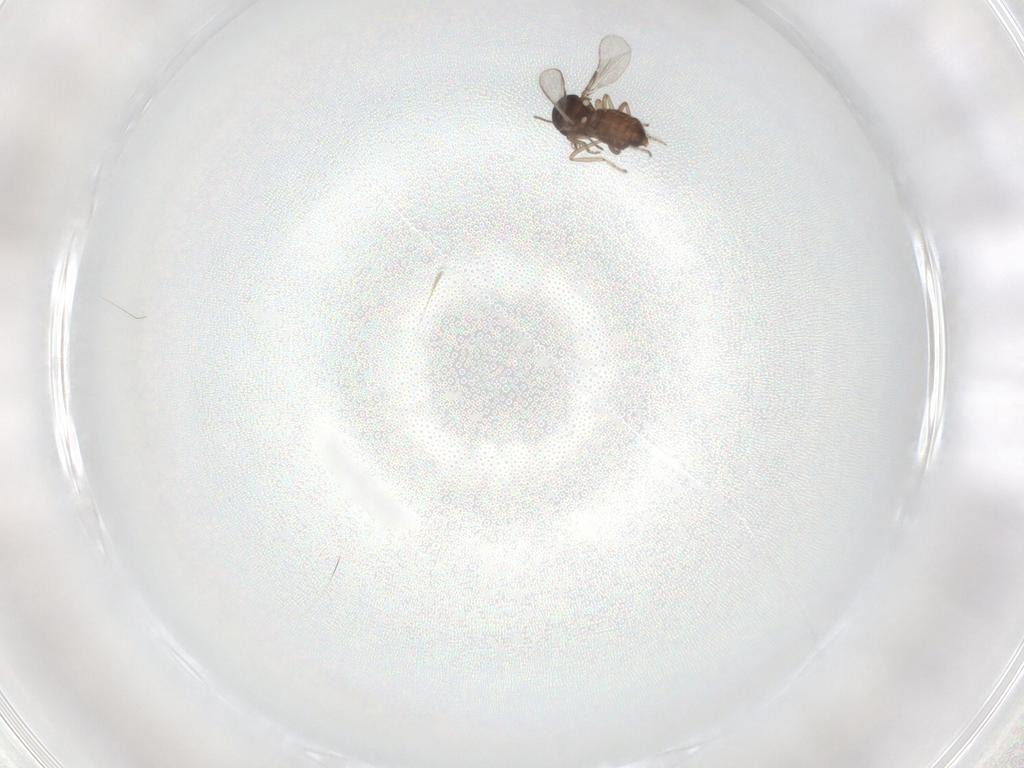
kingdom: Animalia
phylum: Arthropoda
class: Insecta
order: Diptera
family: Ceratopogonidae
